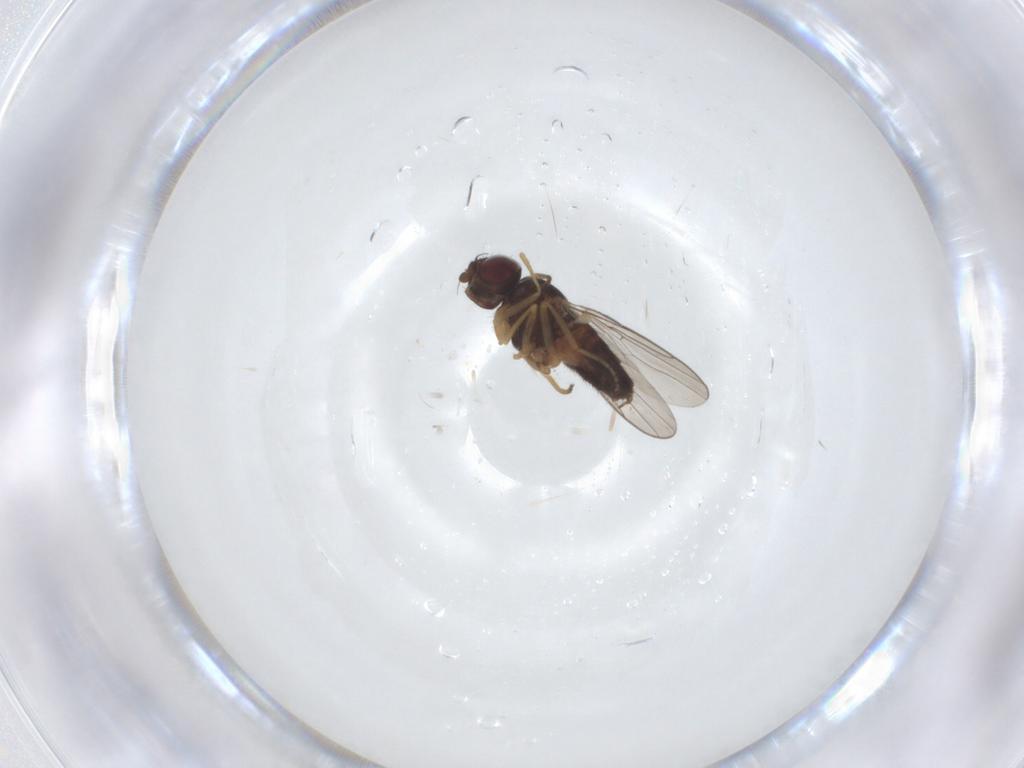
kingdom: Animalia
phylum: Arthropoda
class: Insecta
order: Diptera
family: Chloropidae
